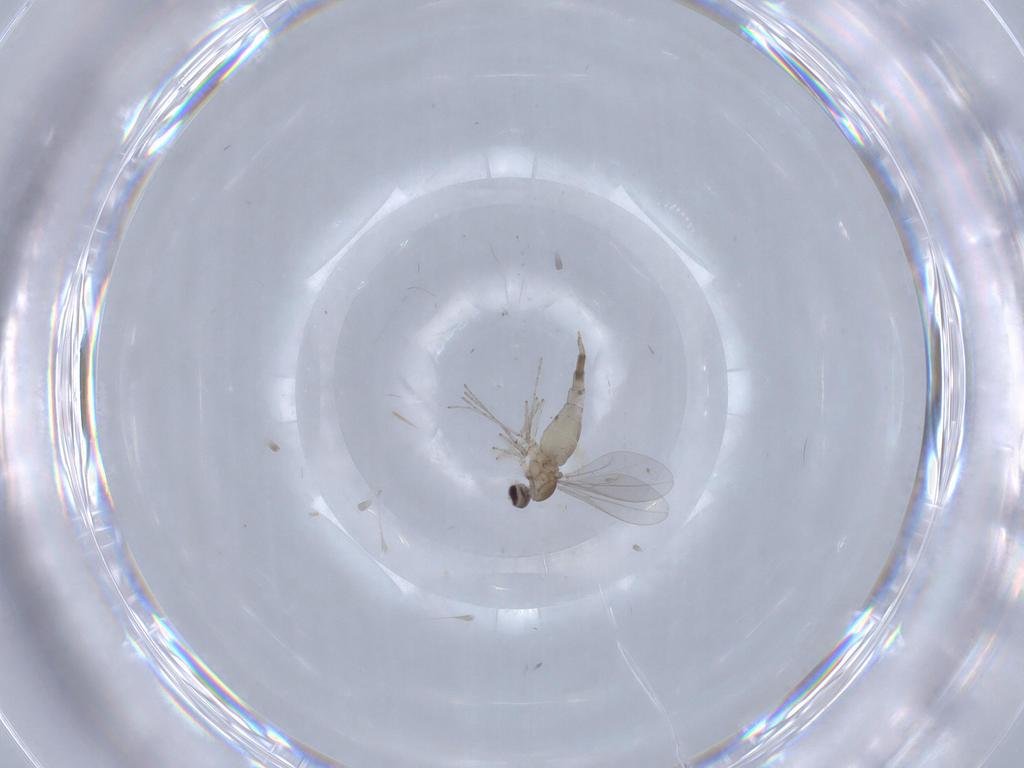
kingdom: Animalia
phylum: Arthropoda
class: Insecta
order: Diptera
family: Cecidomyiidae
